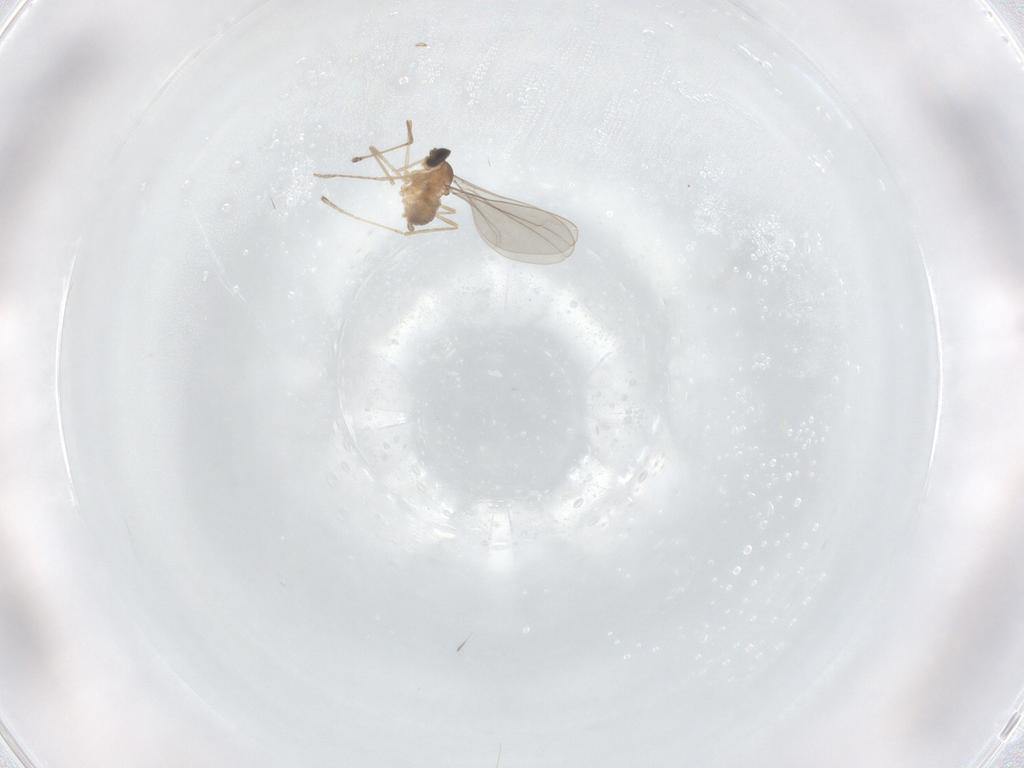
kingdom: Animalia
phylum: Arthropoda
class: Insecta
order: Diptera
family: Cecidomyiidae
